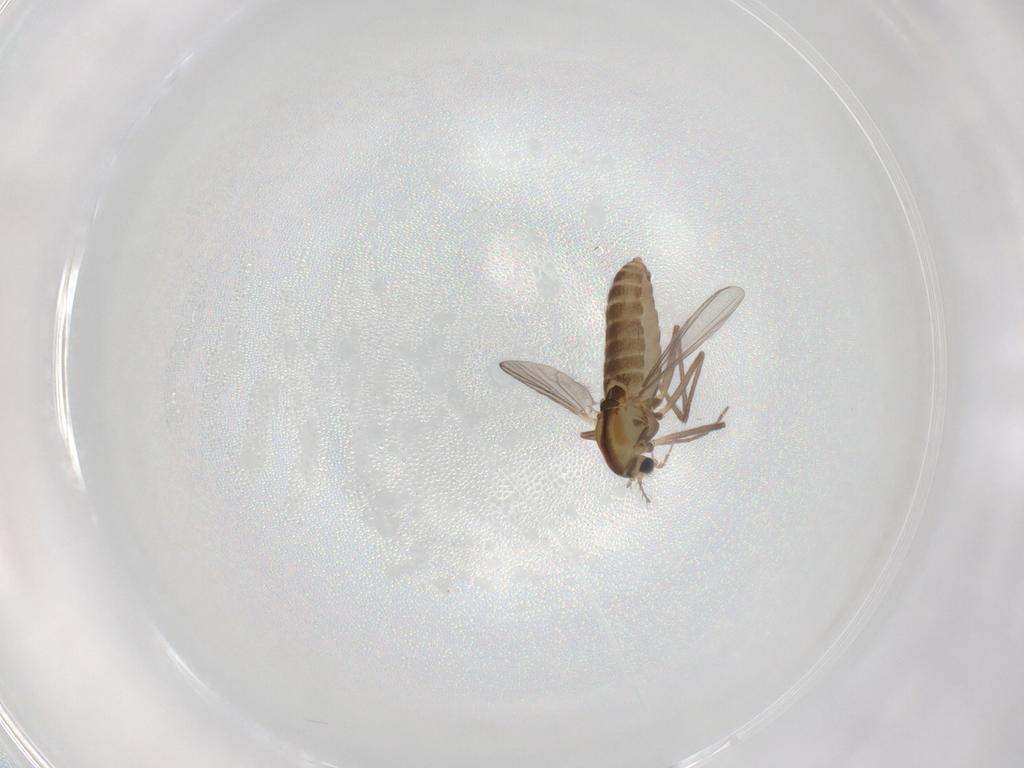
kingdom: Animalia
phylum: Arthropoda
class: Insecta
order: Diptera
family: Chironomidae
